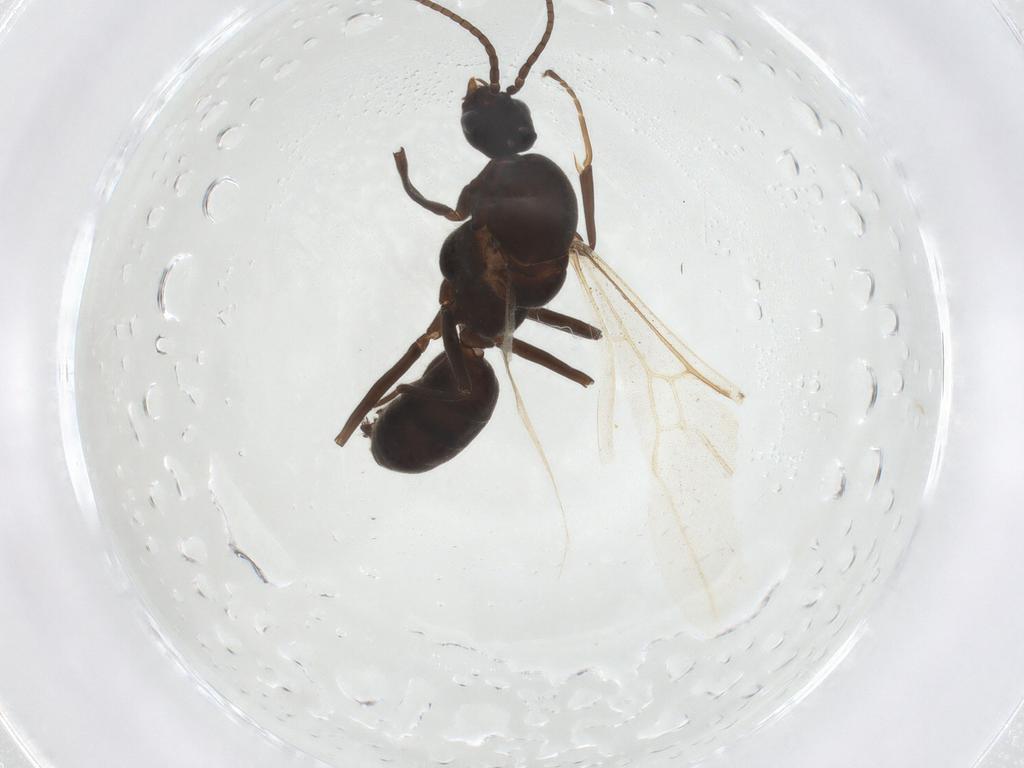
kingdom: Animalia
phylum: Arthropoda
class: Insecta
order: Hymenoptera
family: Formicidae
